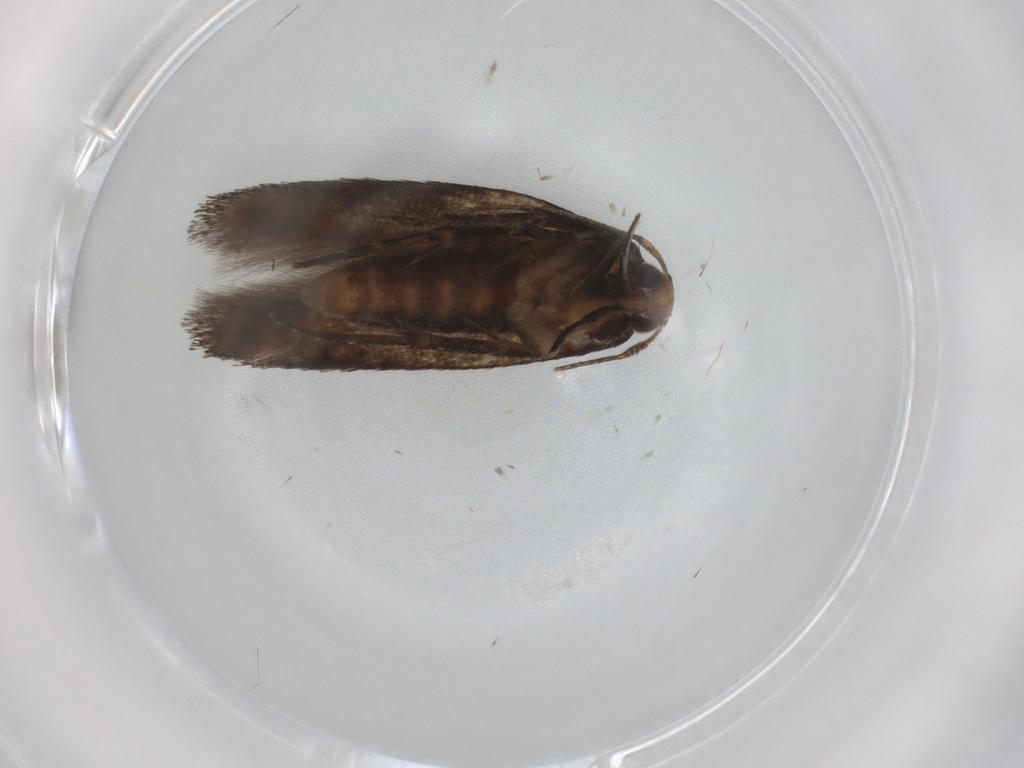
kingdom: Animalia
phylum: Arthropoda
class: Insecta
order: Lepidoptera
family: Cosmopterigidae
